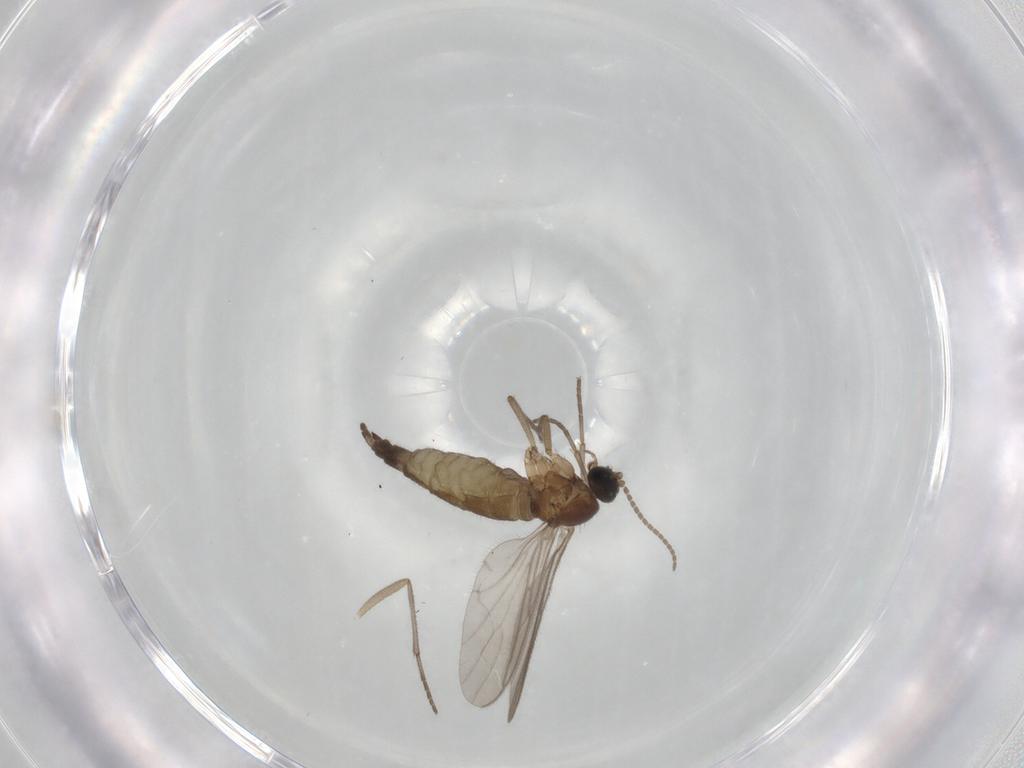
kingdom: Animalia
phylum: Arthropoda
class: Insecta
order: Diptera
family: Sciaridae
